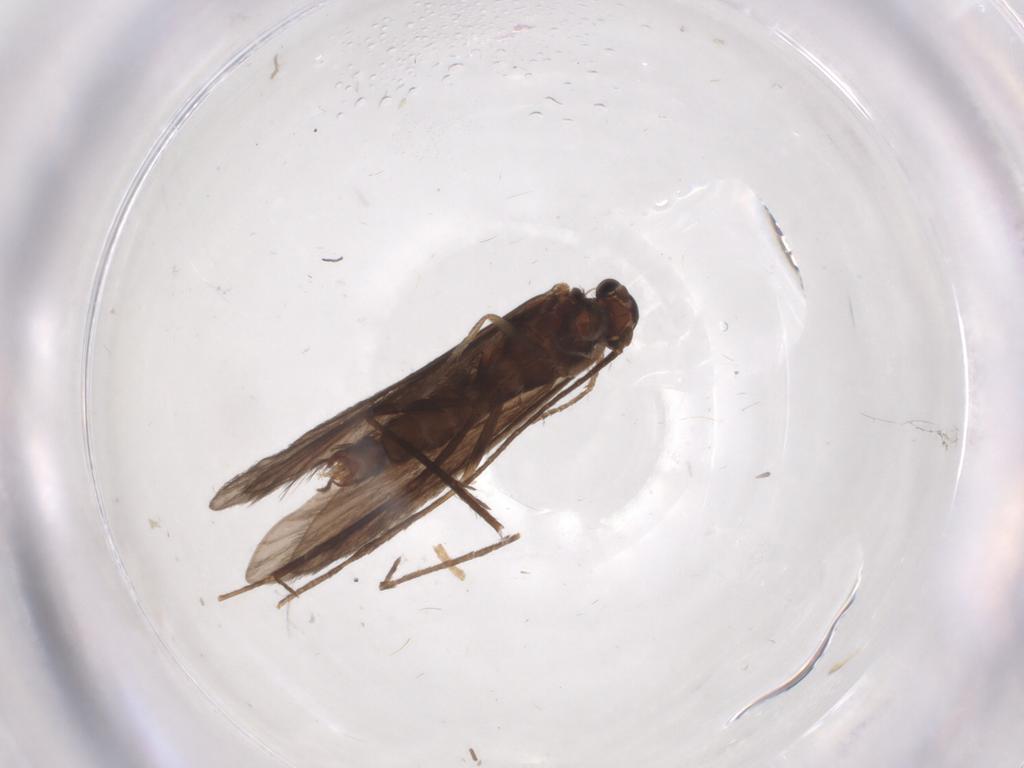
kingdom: Animalia
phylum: Arthropoda
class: Insecta
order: Trichoptera
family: Xiphocentronidae
